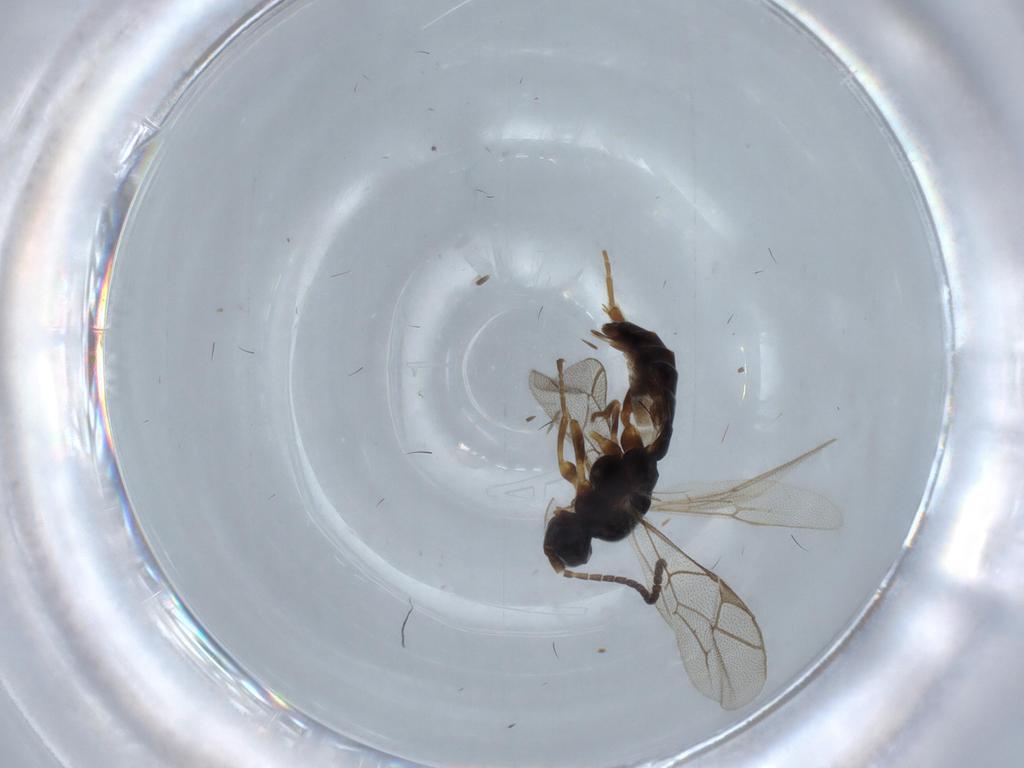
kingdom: Animalia
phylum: Arthropoda
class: Insecta
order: Hymenoptera
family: Ichneumonidae
